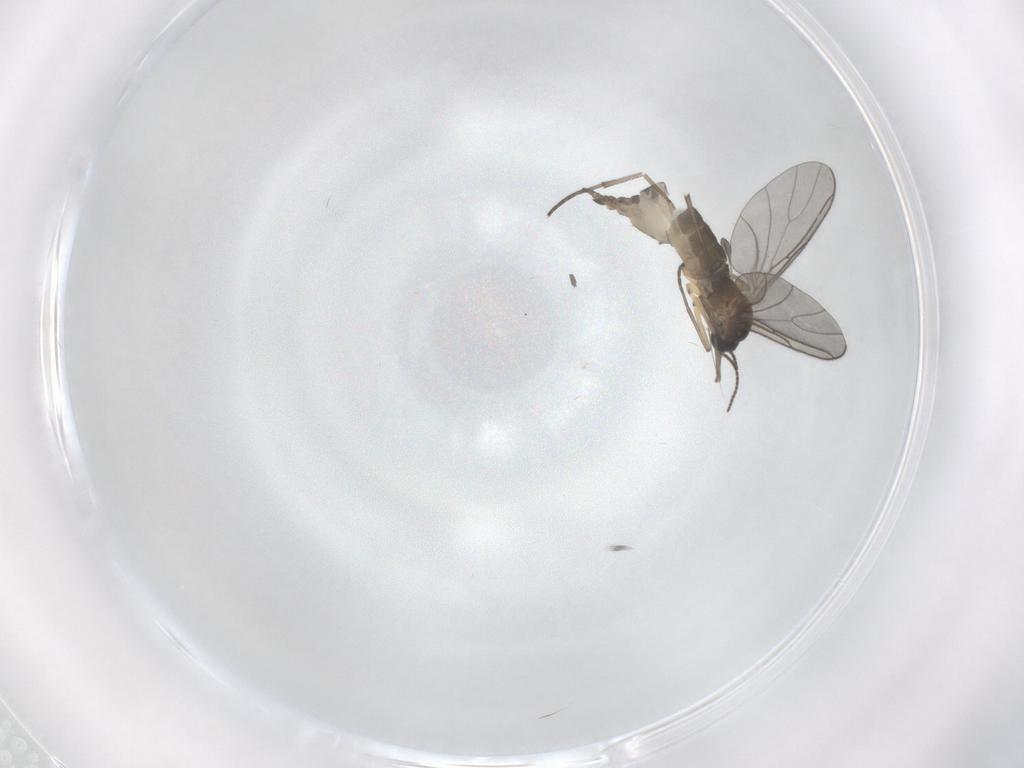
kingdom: Animalia
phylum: Arthropoda
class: Insecta
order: Diptera
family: Sciaridae
